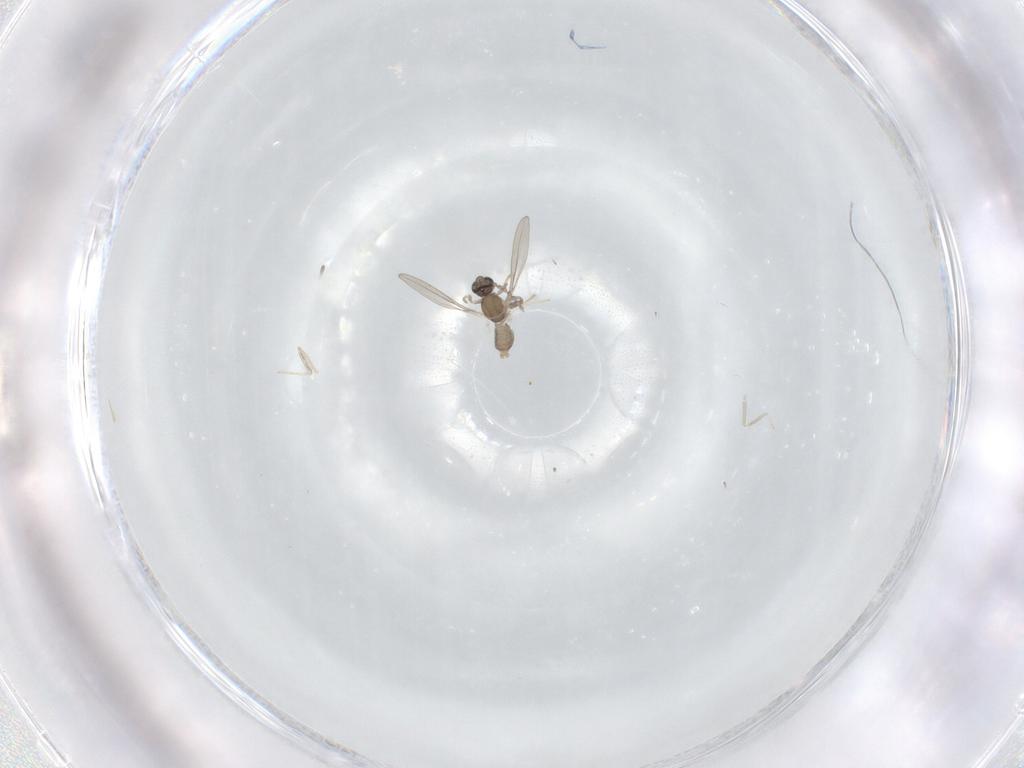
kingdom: Animalia
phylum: Arthropoda
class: Insecta
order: Diptera
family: Cecidomyiidae
